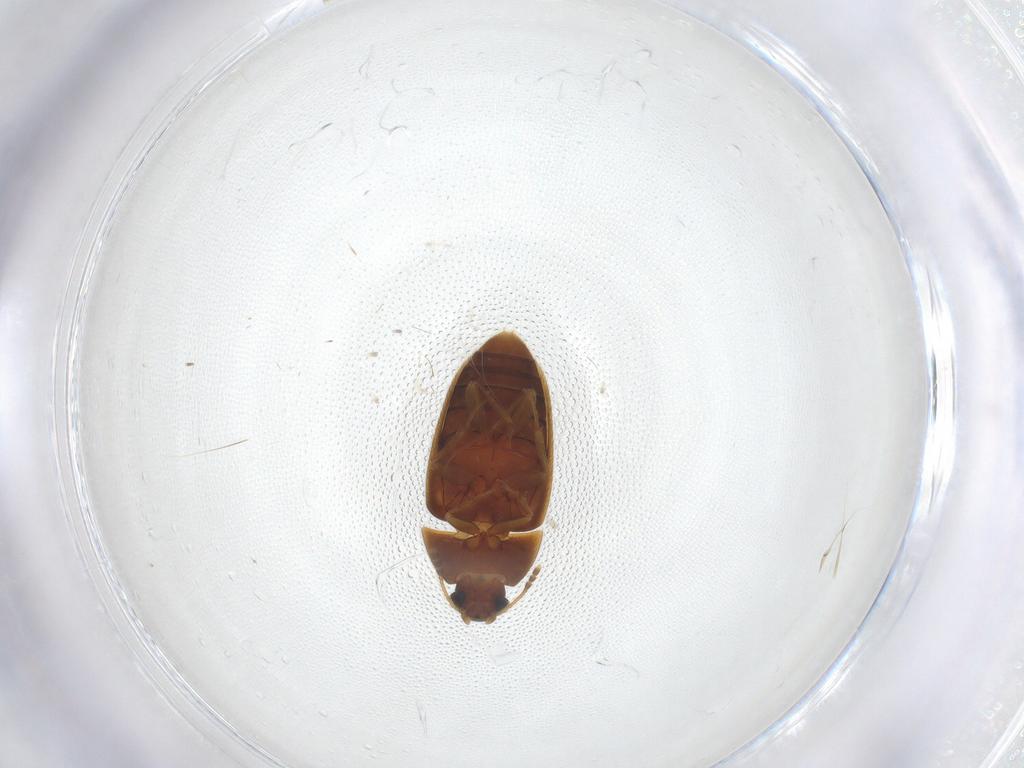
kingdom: Animalia
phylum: Arthropoda
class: Insecta
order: Coleoptera
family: Mycetophagidae
